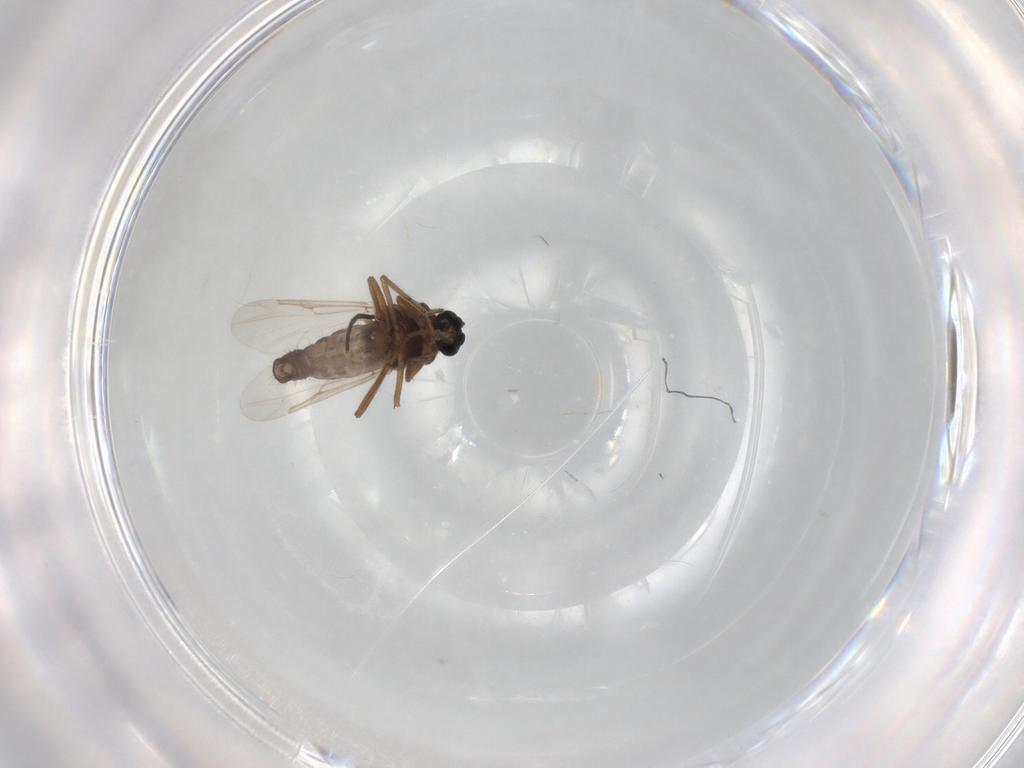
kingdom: Animalia
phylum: Arthropoda
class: Insecta
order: Diptera
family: Ceratopogonidae
